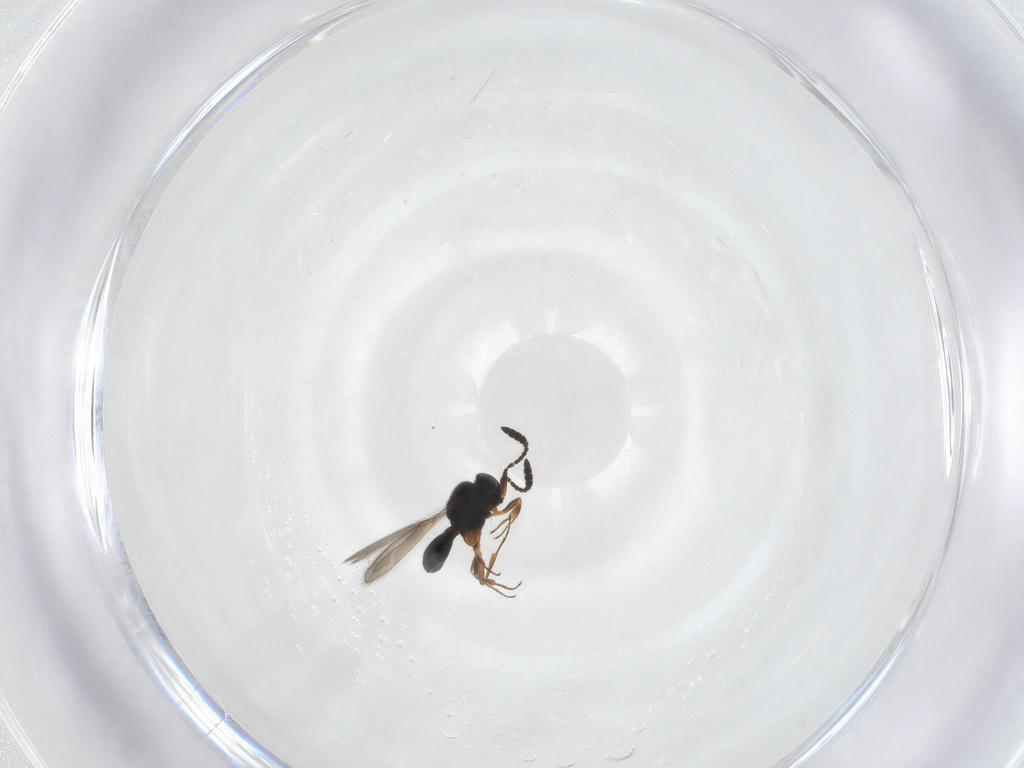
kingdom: Animalia
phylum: Arthropoda
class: Insecta
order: Hymenoptera
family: Scelionidae
